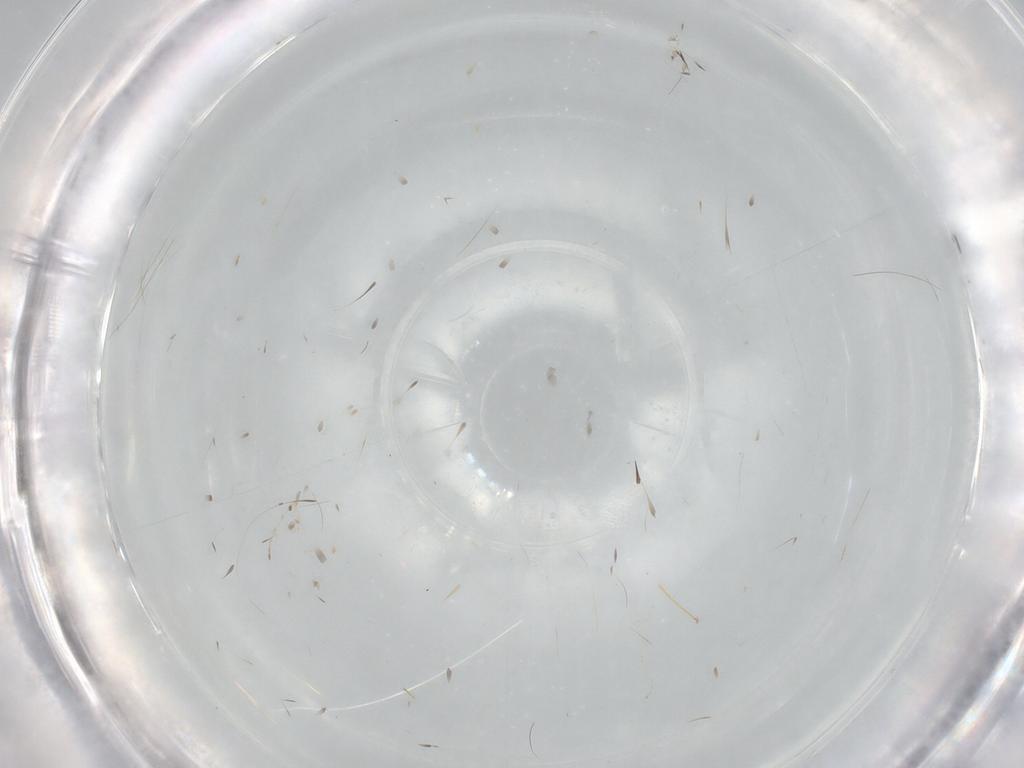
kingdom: Animalia
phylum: Arthropoda
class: Insecta
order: Diptera
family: Cecidomyiidae
